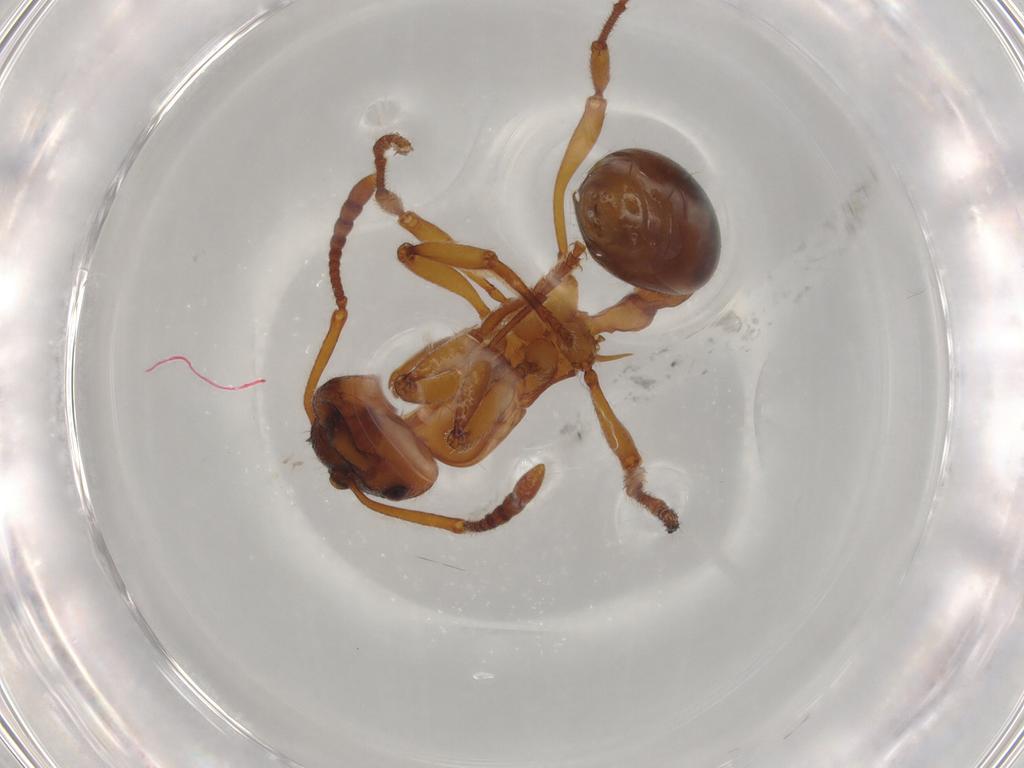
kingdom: Animalia
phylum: Arthropoda
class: Insecta
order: Hymenoptera
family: Formicidae
